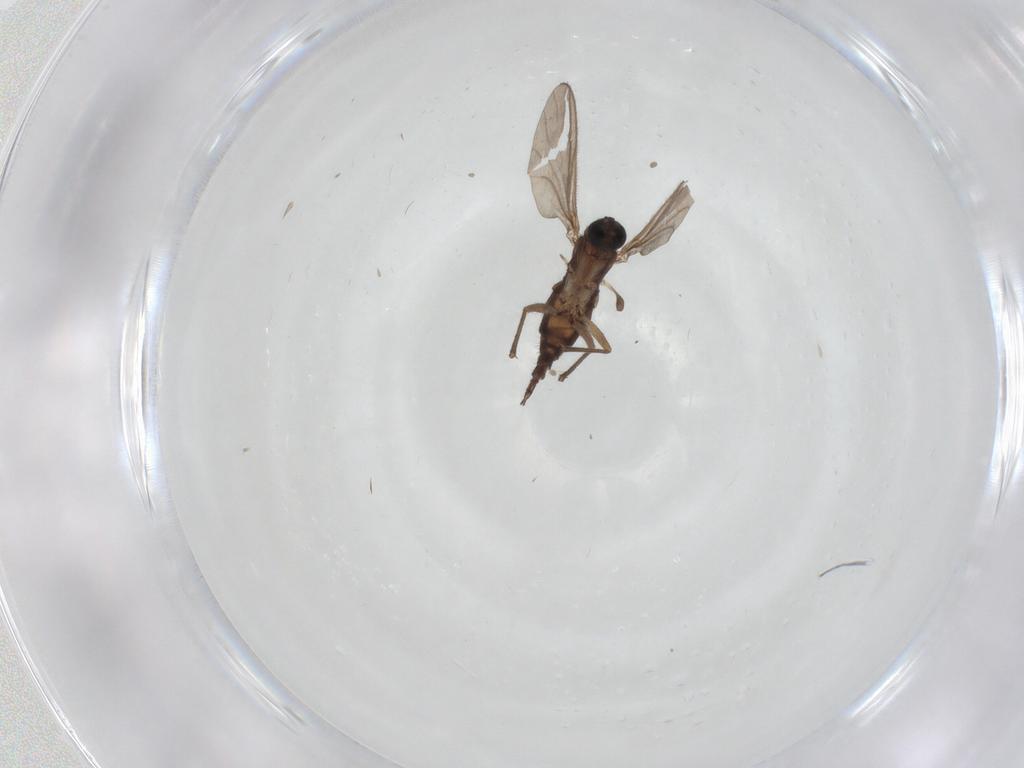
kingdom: Animalia
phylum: Arthropoda
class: Insecta
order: Diptera
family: Sciaridae
